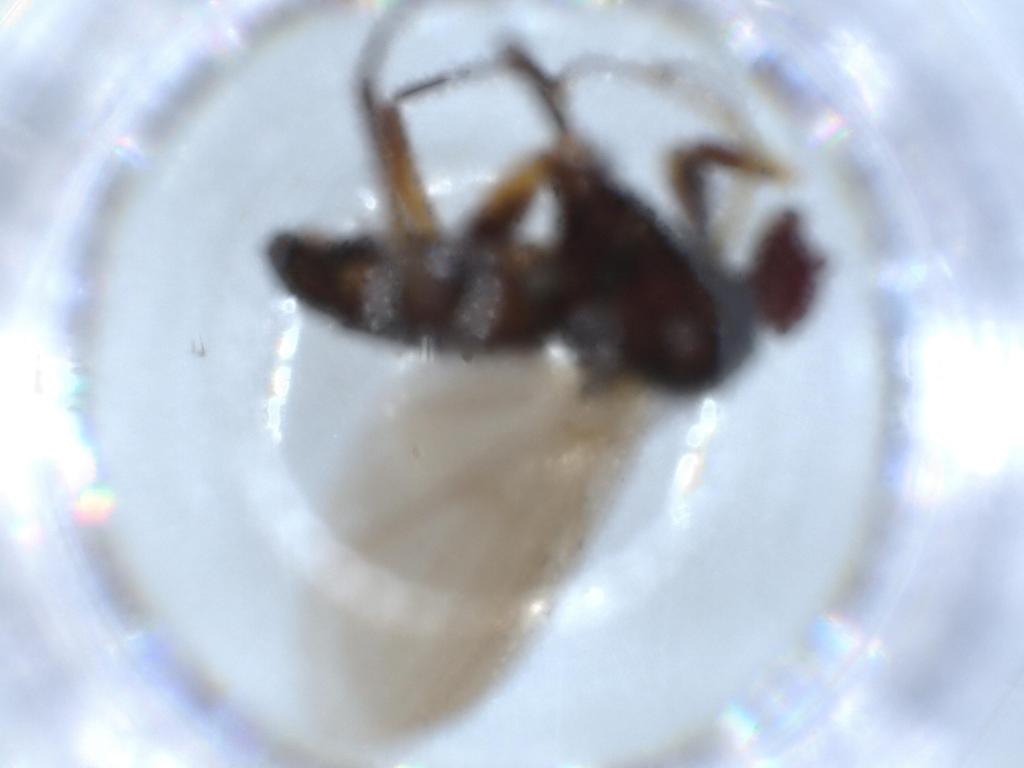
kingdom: Animalia
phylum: Arthropoda
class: Insecta
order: Diptera
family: Dolichopodidae
